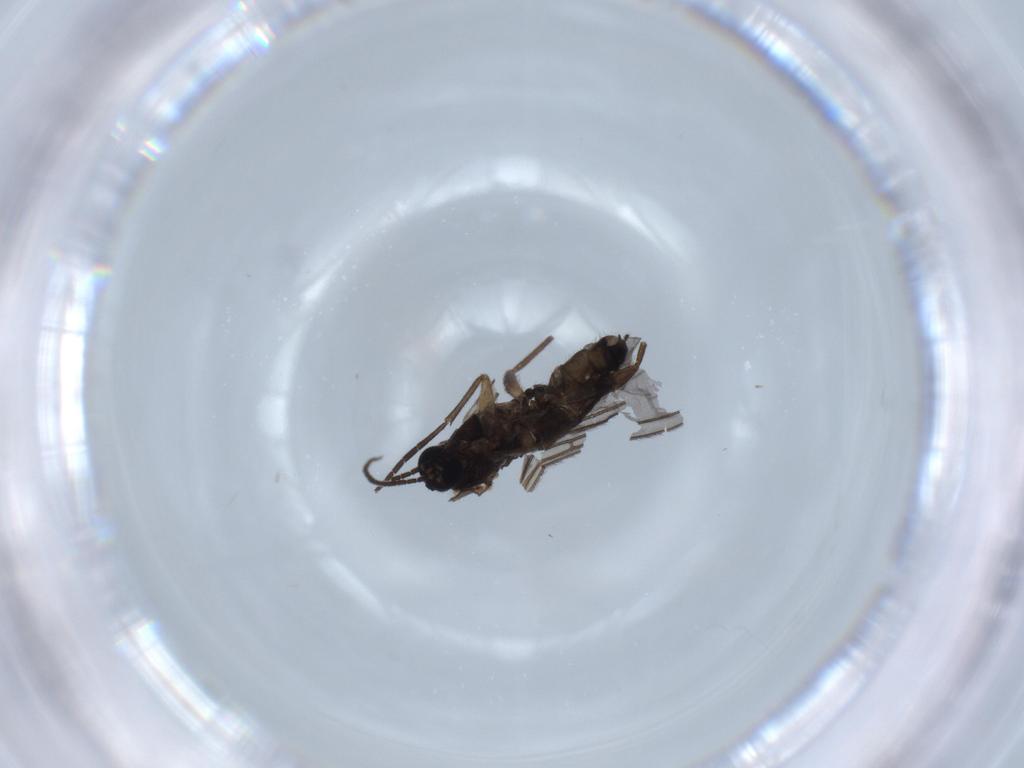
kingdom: Animalia
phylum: Arthropoda
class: Insecta
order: Diptera
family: Sciaridae
